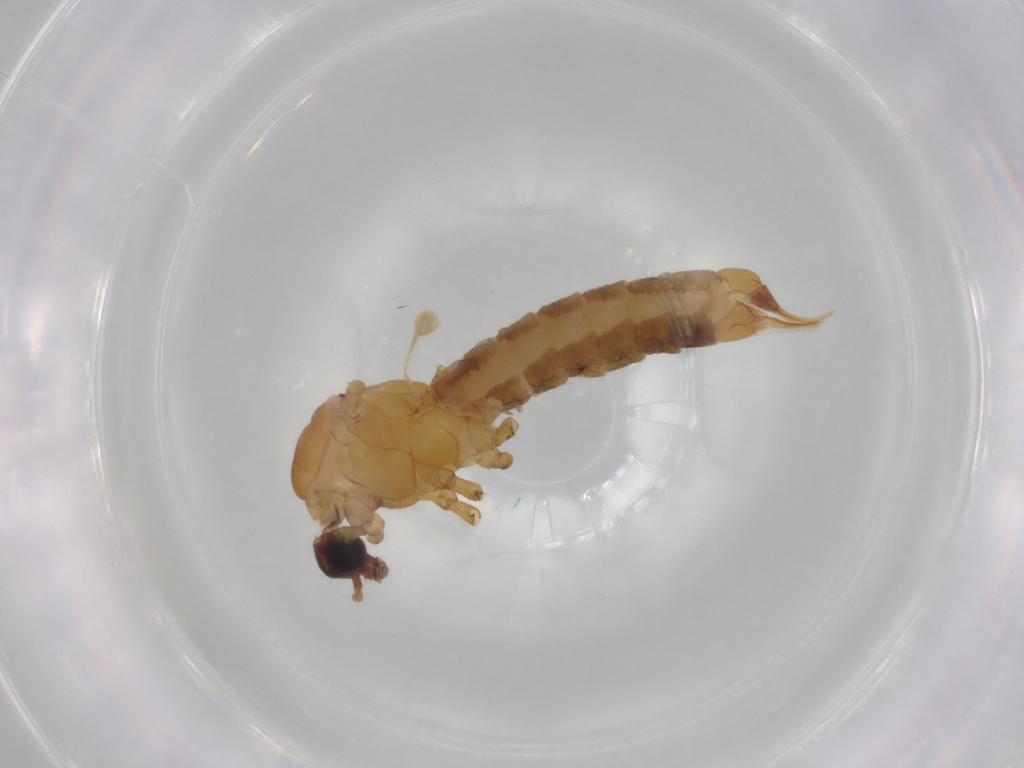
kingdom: Animalia
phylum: Arthropoda
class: Insecta
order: Diptera
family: Limoniidae
